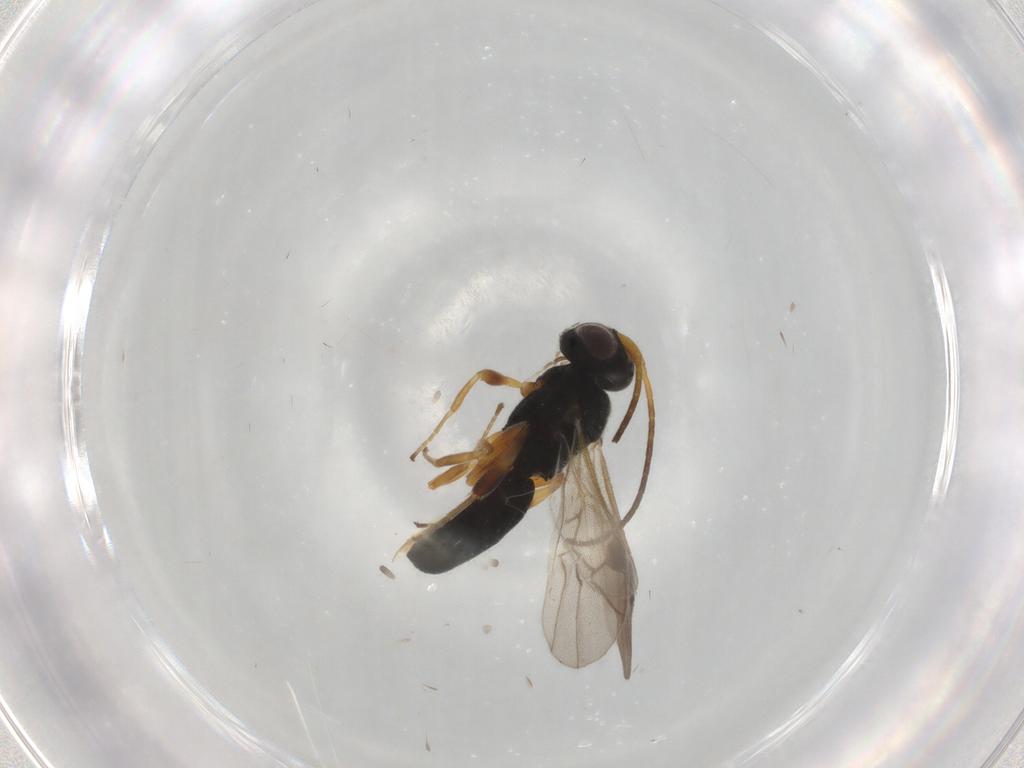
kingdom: Animalia
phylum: Arthropoda
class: Insecta
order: Hymenoptera
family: Braconidae
